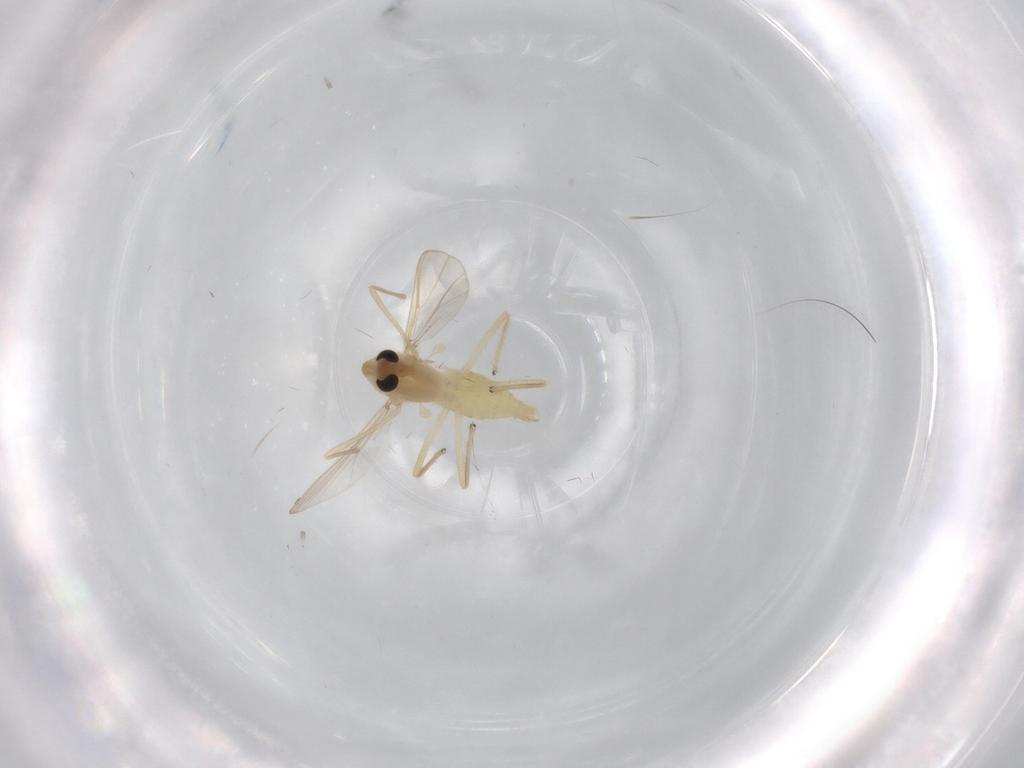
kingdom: Animalia
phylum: Arthropoda
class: Insecta
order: Diptera
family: Chironomidae
